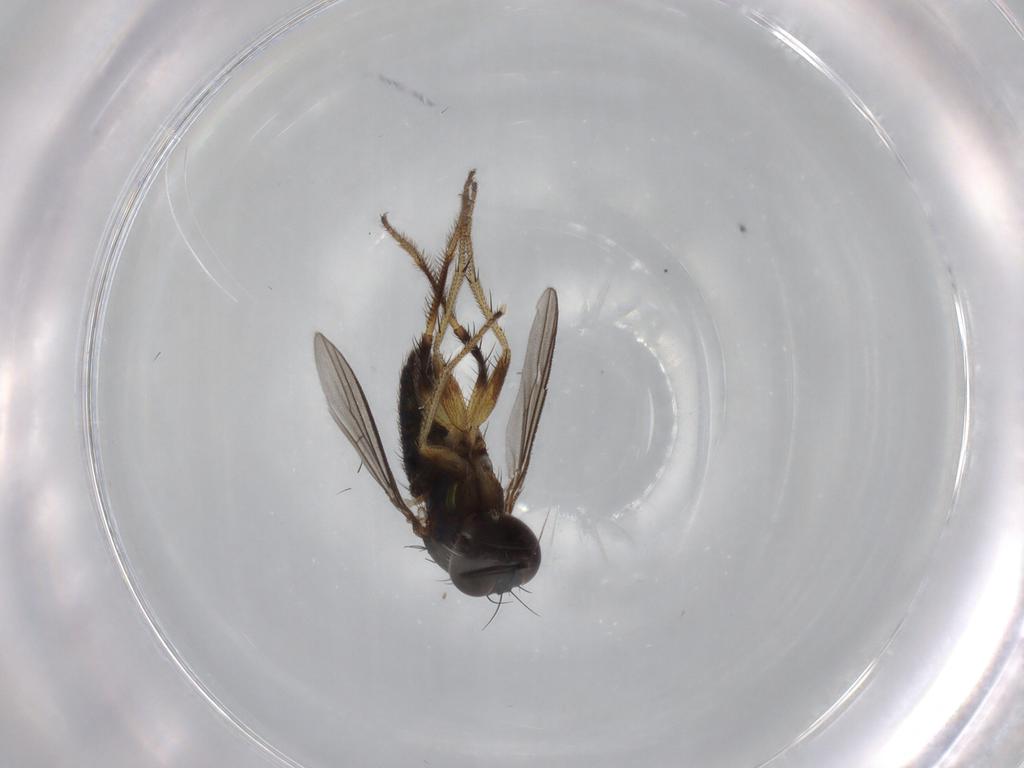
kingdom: Animalia
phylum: Arthropoda
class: Insecta
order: Diptera
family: Dolichopodidae
